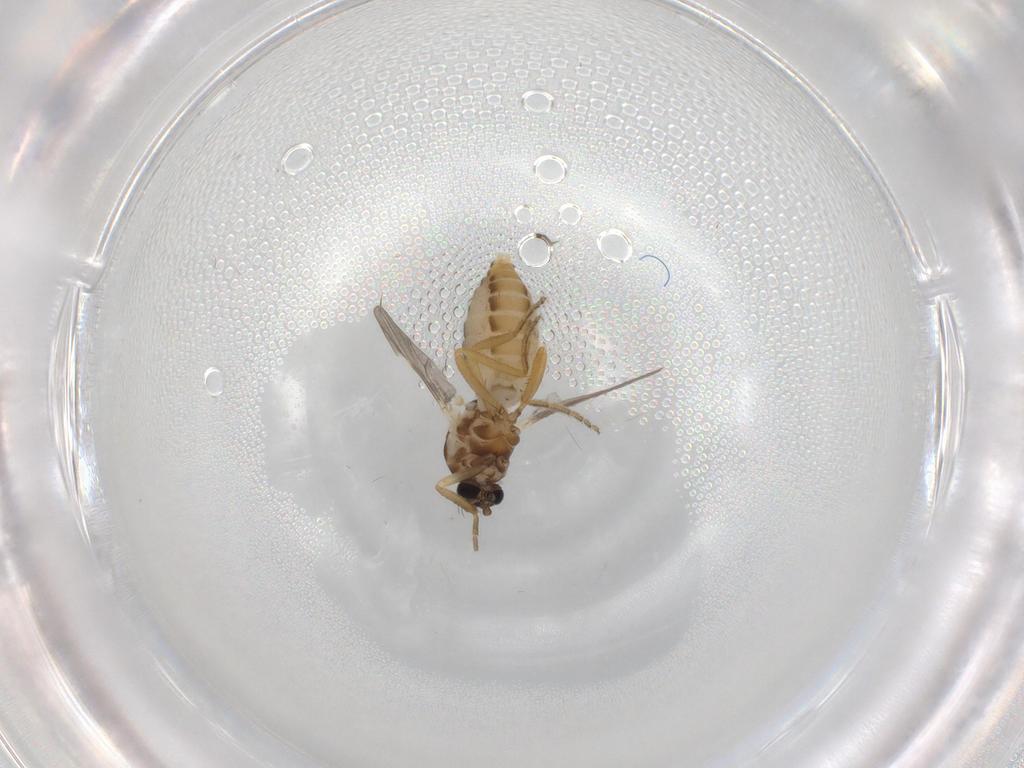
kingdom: Animalia
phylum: Arthropoda
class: Insecta
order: Diptera
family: Ceratopogonidae
